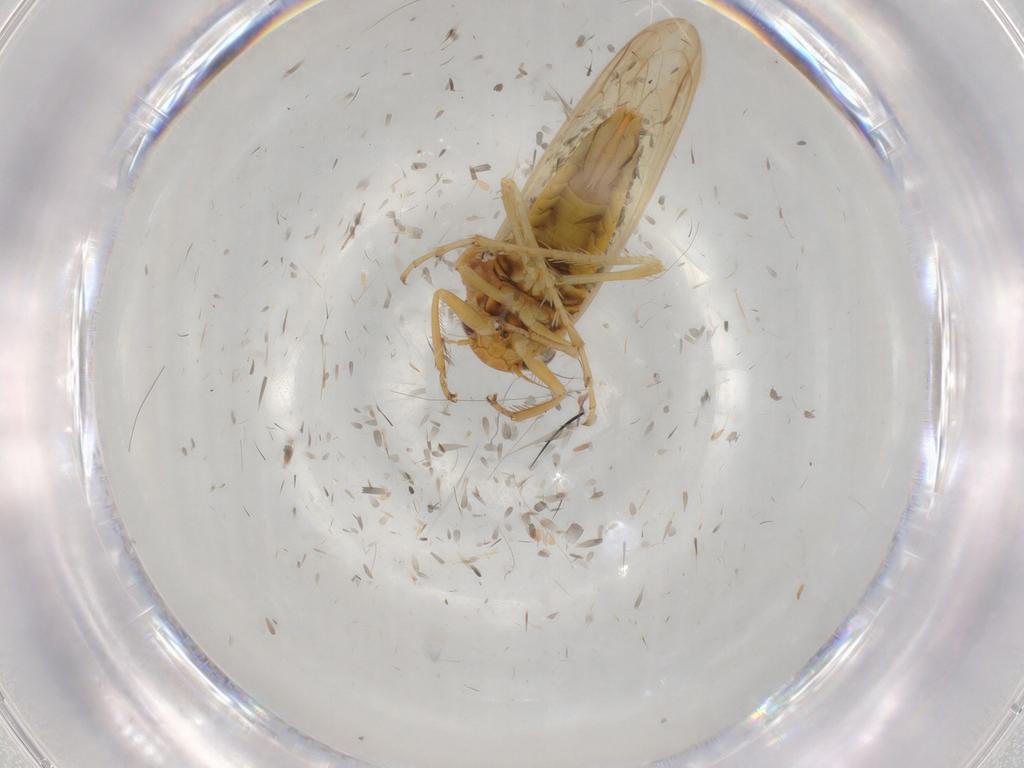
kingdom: Animalia
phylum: Arthropoda
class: Insecta
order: Hemiptera
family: Cicadellidae
